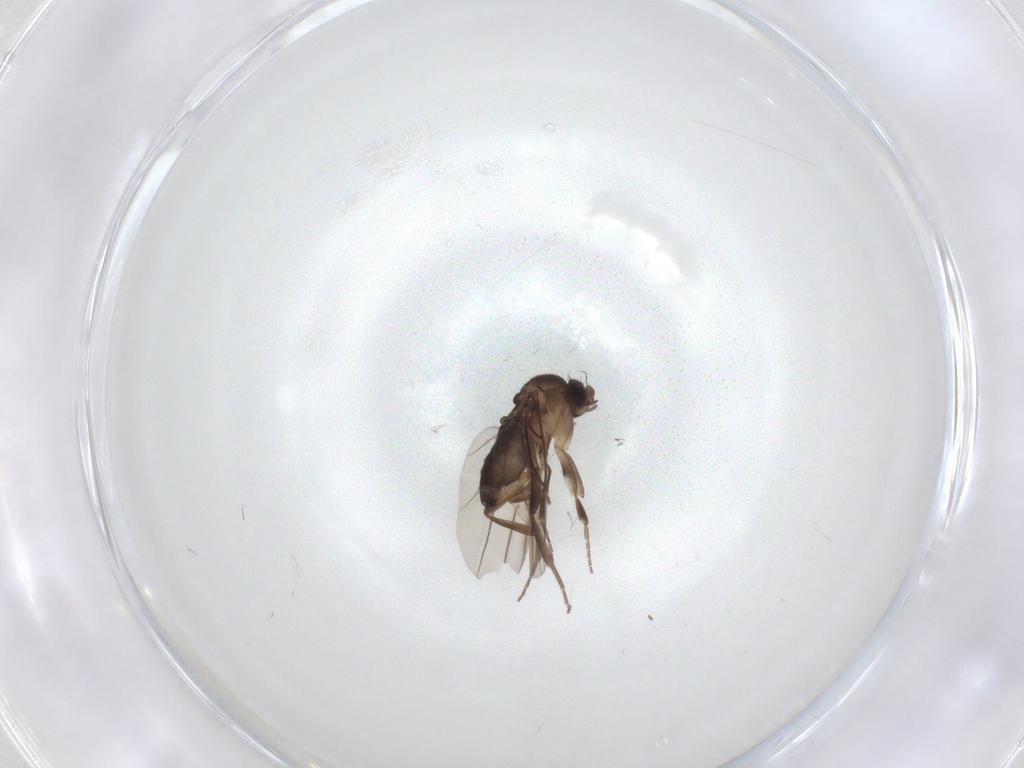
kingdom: Animalia
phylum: Arthropoda
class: Insecta
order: Diptera
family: Phoridae
